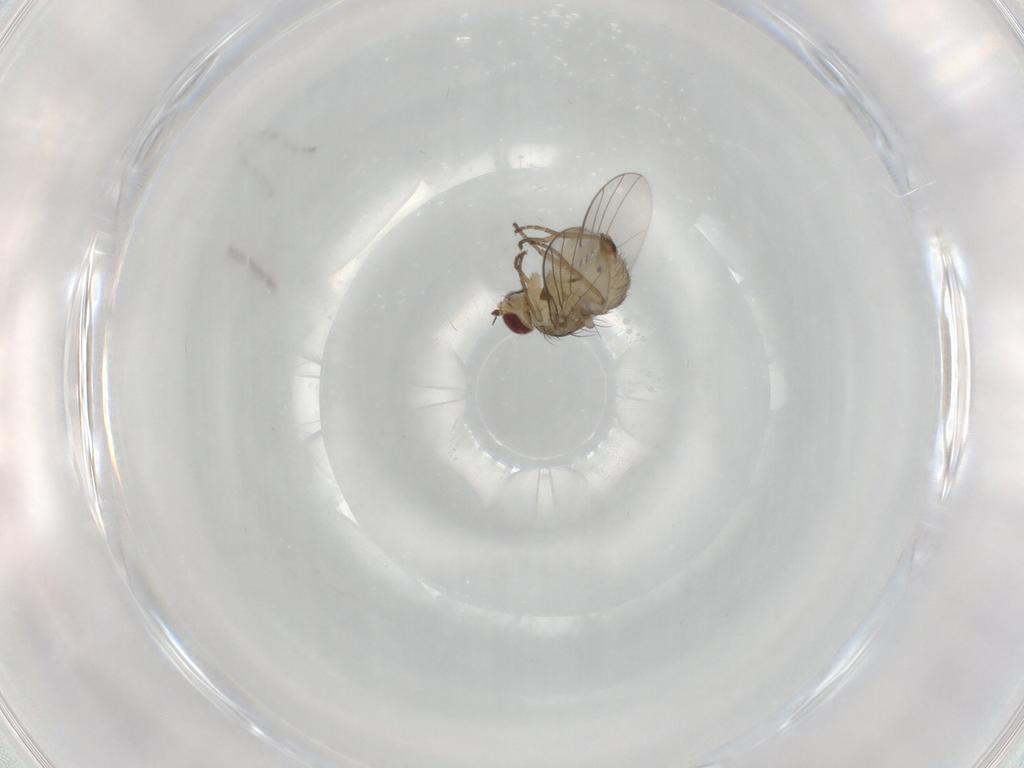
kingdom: Animalia
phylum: Arthropoda
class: Insecta
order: Diptera
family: Agromyzidae
